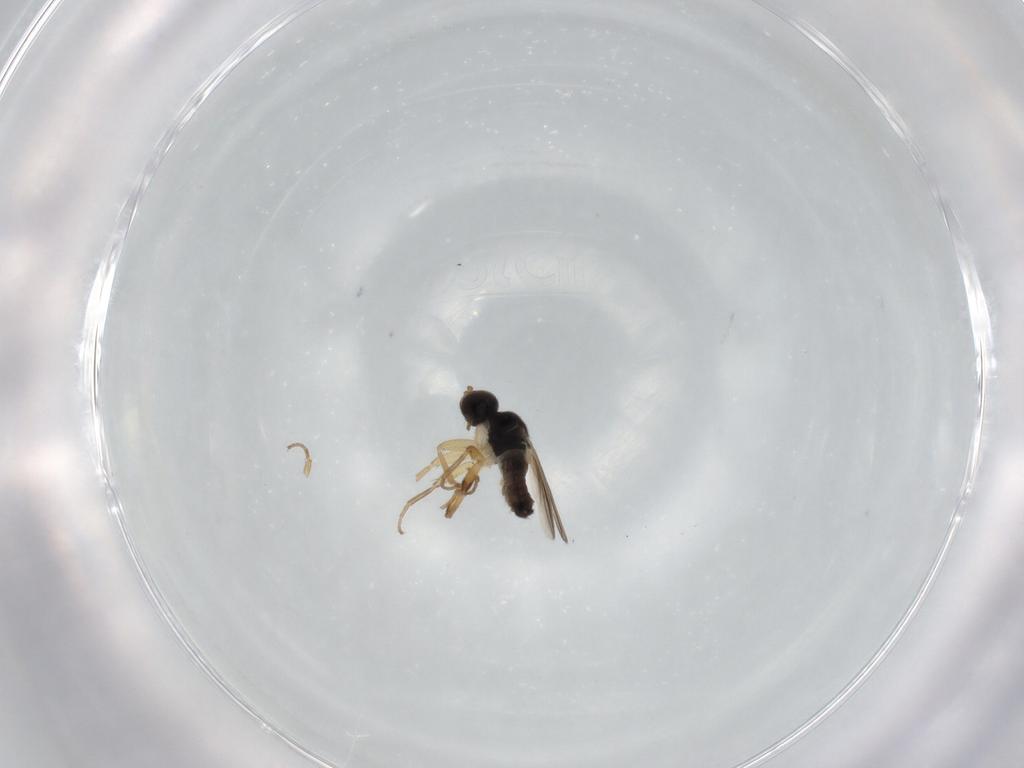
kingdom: Animalia
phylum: Arthropoda
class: Insecta
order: Diptera
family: Hybotidae
